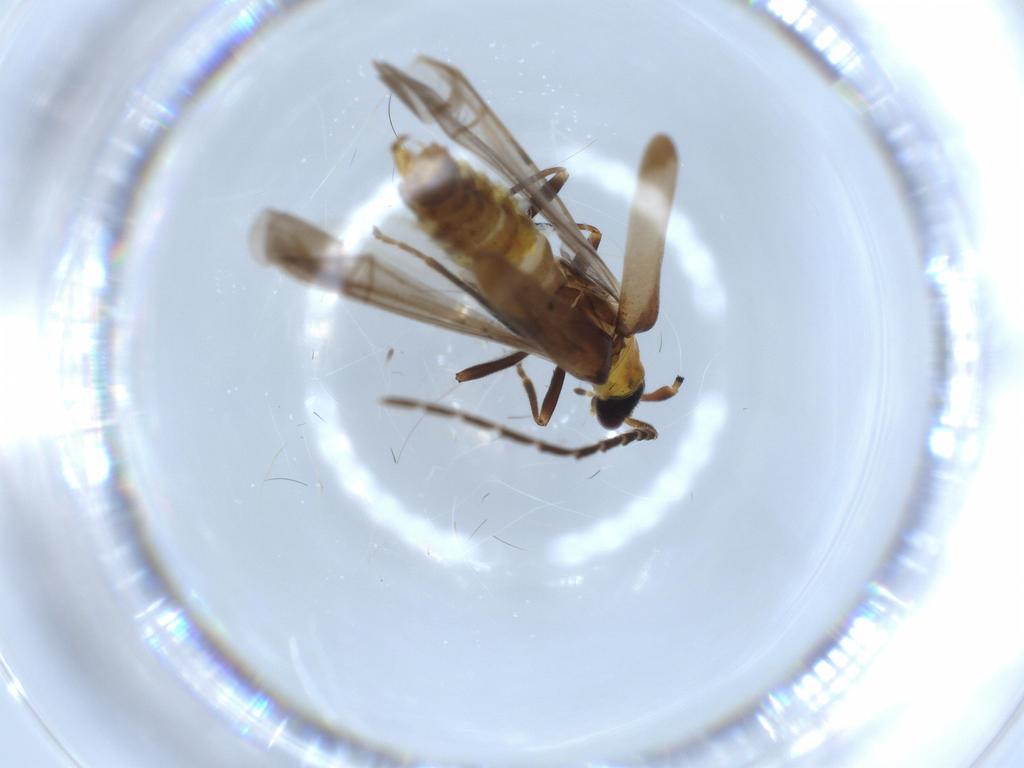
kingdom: Animalia
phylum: Arthropoda
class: Insecta
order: Coleoptera
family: Cantharidae
